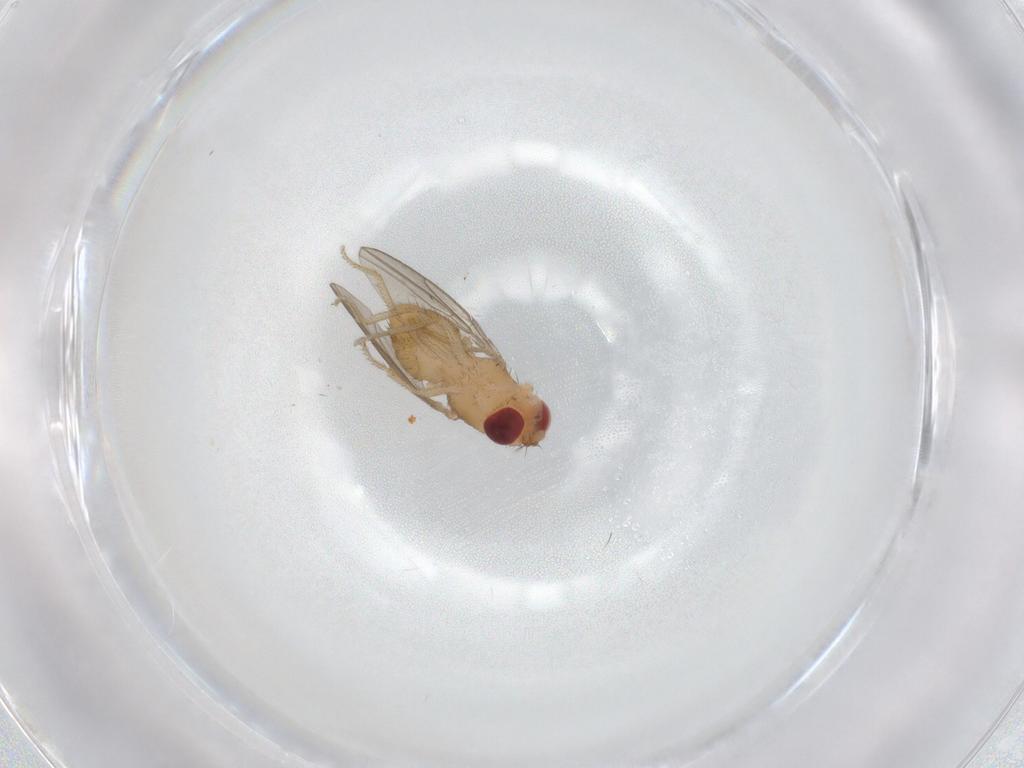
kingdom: Animalia
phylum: Arthropoda
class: Insecta
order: Diptera
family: Drosophilidae
